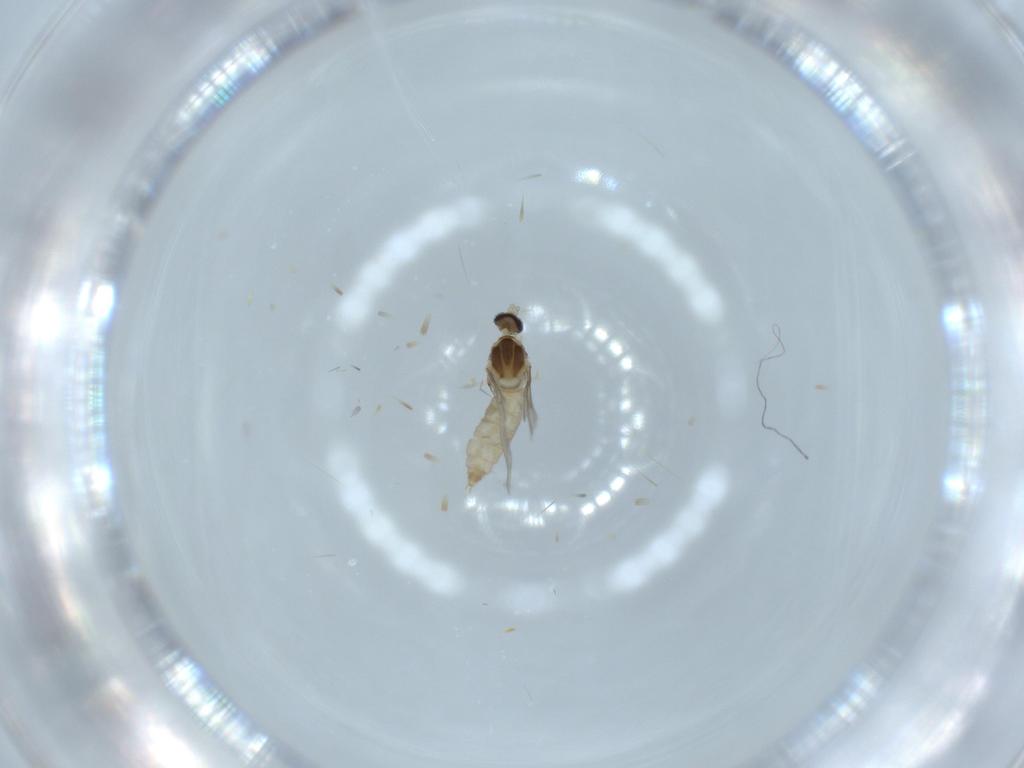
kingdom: Animalia
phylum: Arthropoda
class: Insecta
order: Diptera
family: Cecidomyiidae
